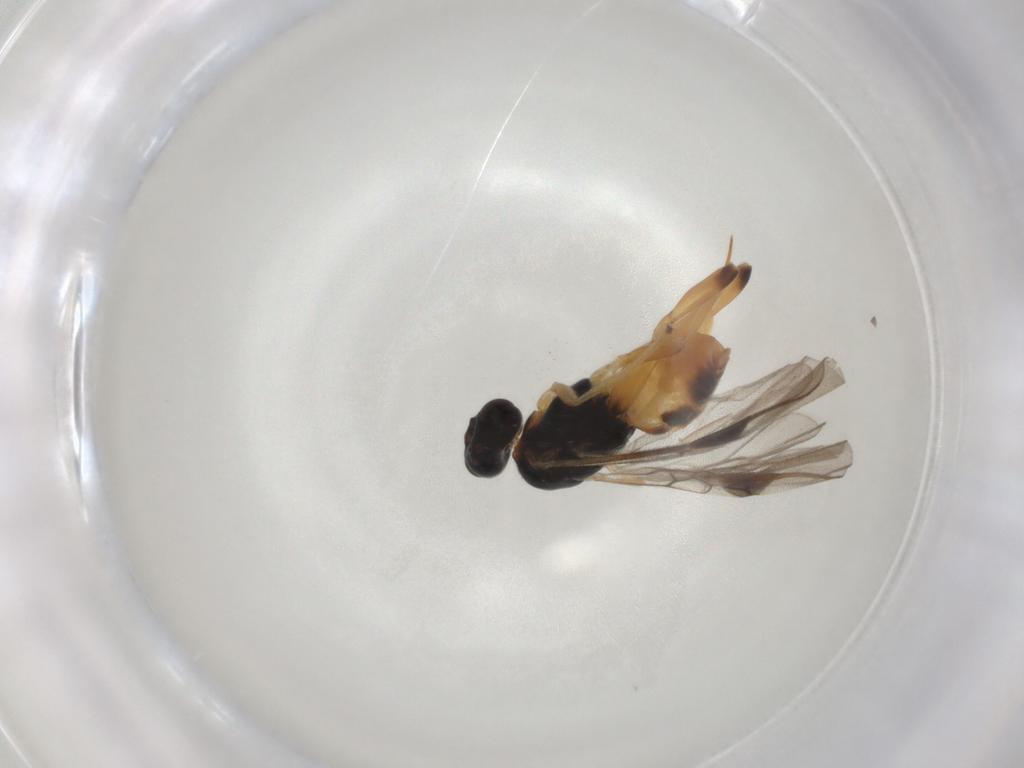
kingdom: Animalia
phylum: Arthropoda
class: Insecta
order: Hymenoptera
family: Braconidae
